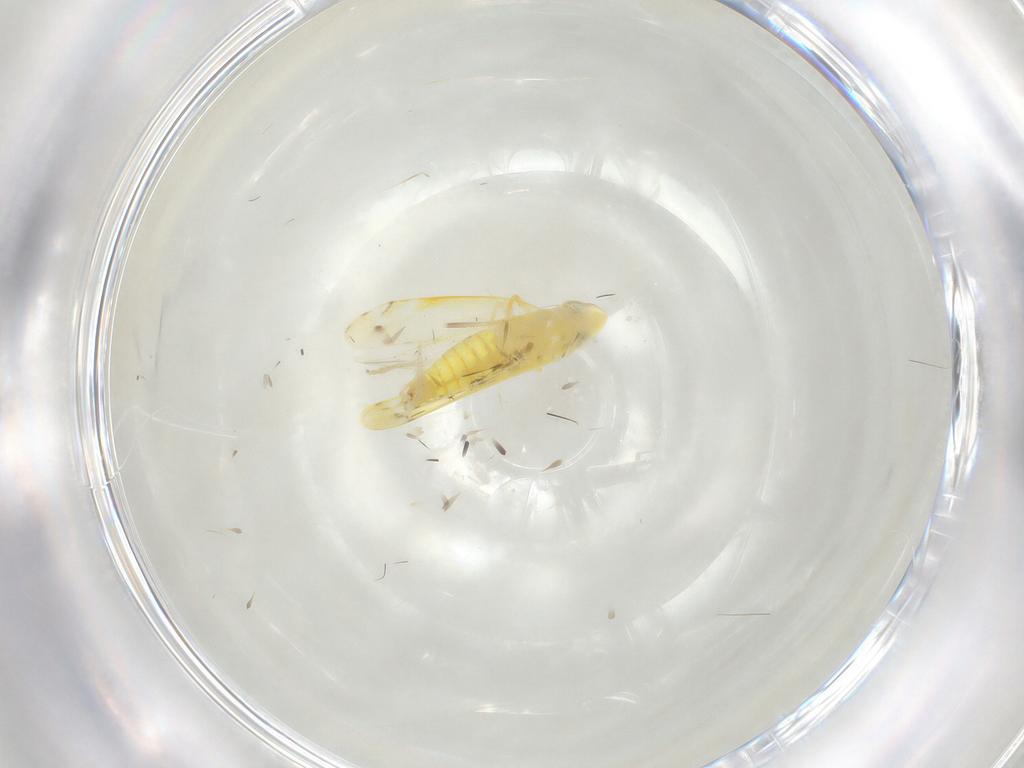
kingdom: Animalia
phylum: Arthropoda
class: Insecta
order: Hemiptera
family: Cicadellidae
